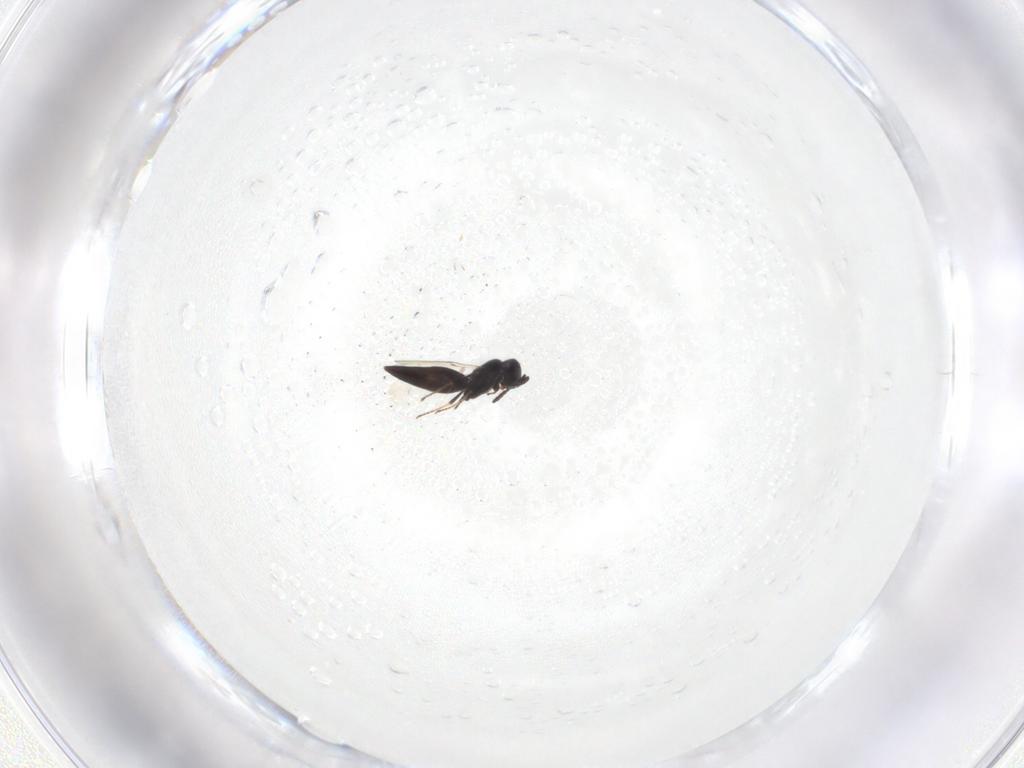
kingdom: Animalia
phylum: Arthropoda
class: Insecta
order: Hymenoptera
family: Scelionidae
